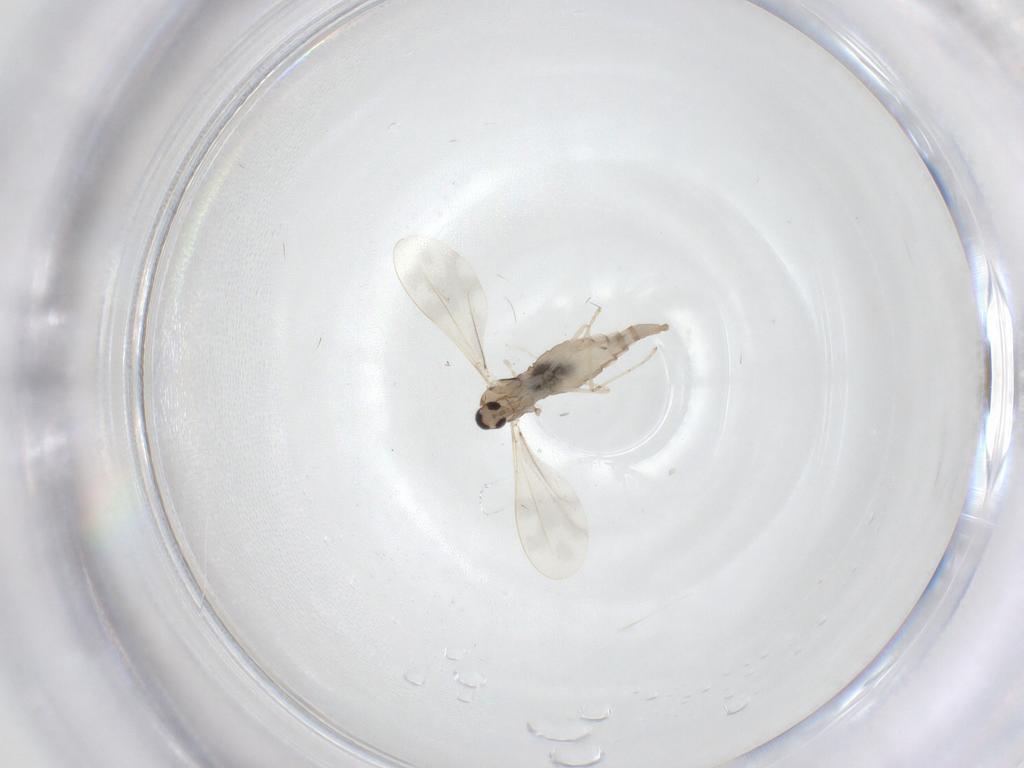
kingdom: Animalia
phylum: Arthropoda
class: Insecta
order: Diptera
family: Cecidomyiidae
